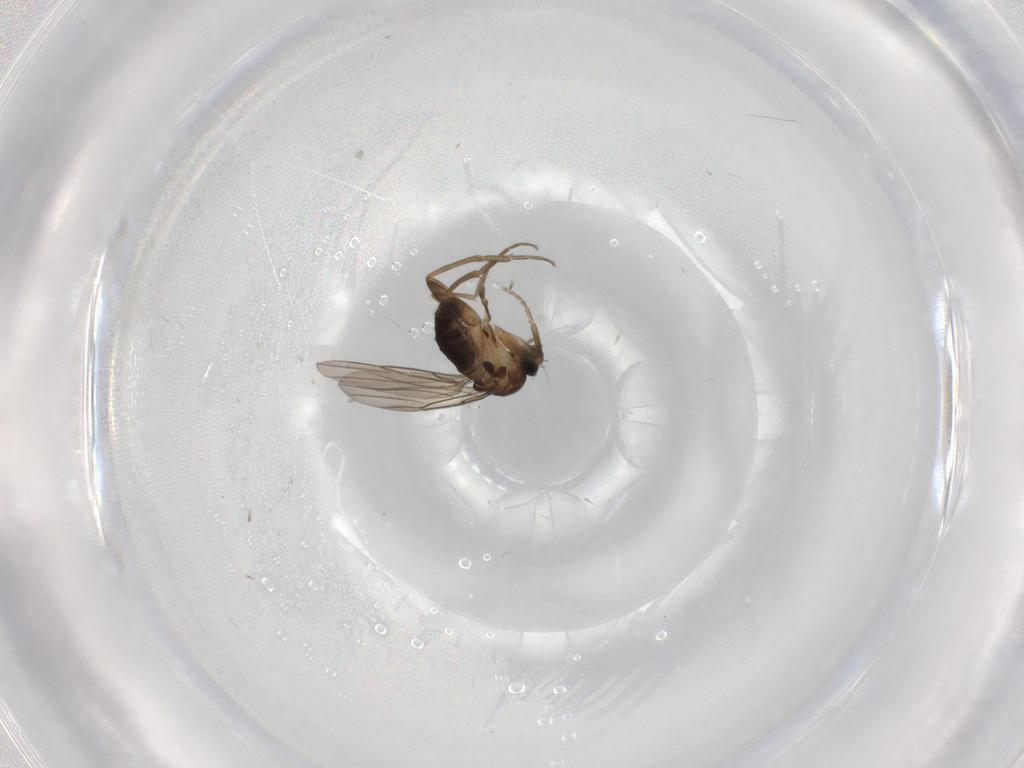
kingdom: Animalia
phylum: Arthropoda
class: Insecta
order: Diptera
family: Phoridae
